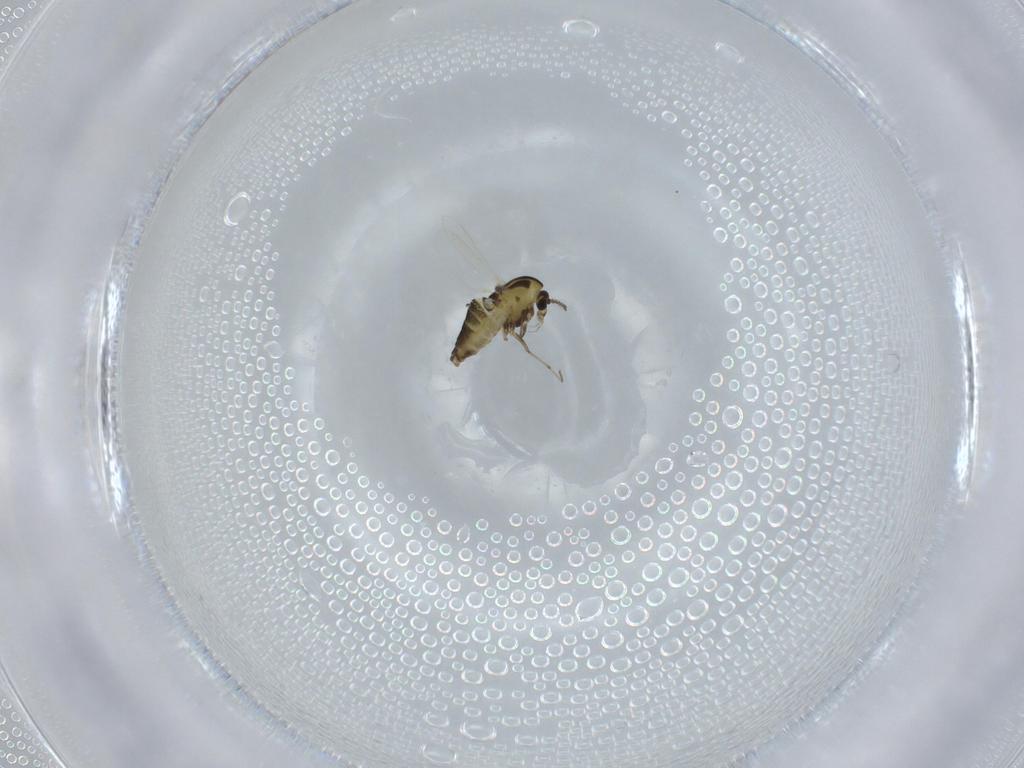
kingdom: Animalia
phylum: Arthropoda
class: Insecta
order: Diptera
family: Chironomidae
